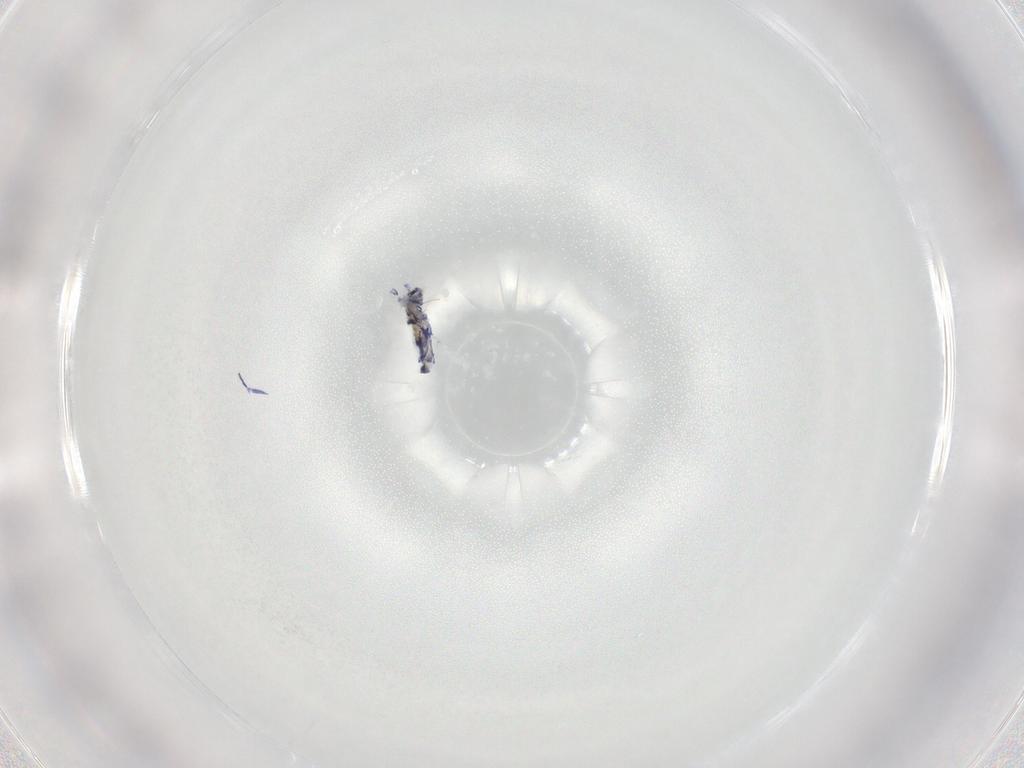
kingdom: Animalia
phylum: Arthropoda
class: Collembola
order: Entomobryomorpha
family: Entomobryidae
